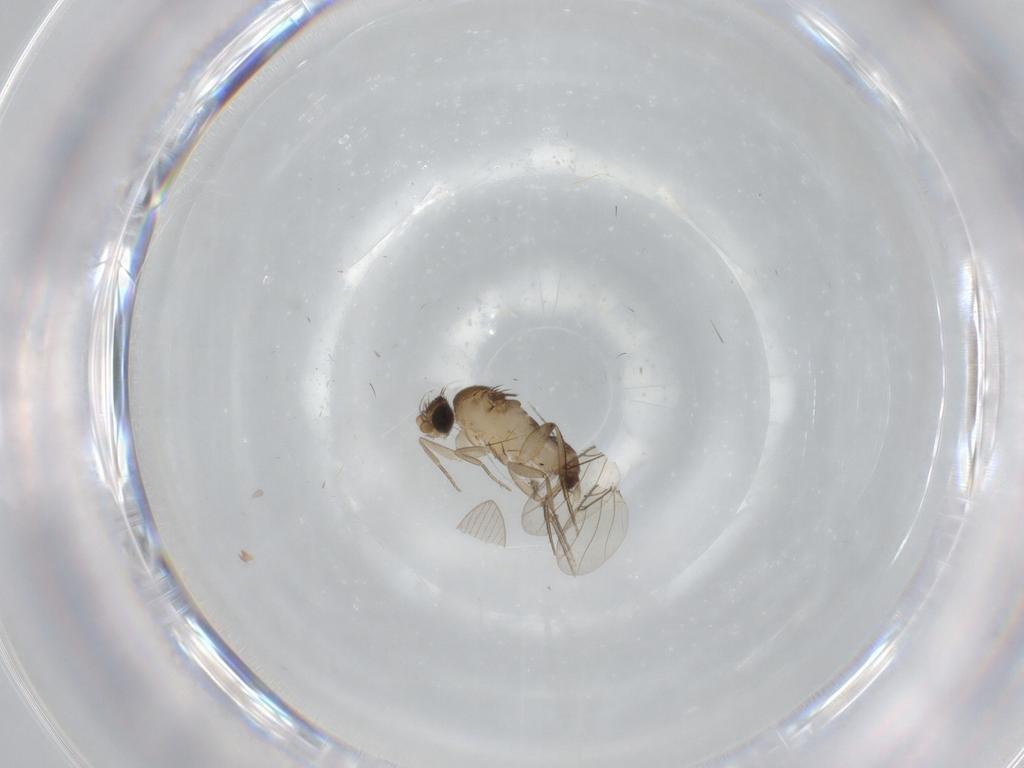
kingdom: Animalia
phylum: Arthropoda
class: Insecta
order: Diptera
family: Phoridae
